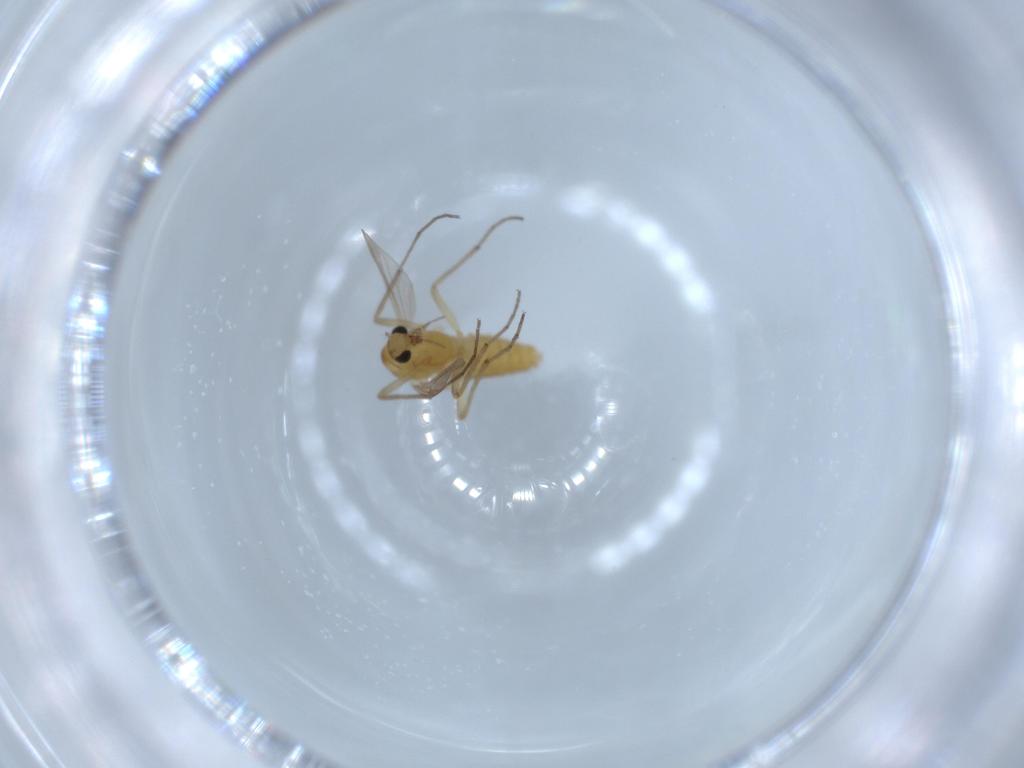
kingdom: Animalia
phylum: Arthropoda
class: Insecta
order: Diptera
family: Chironomidae
